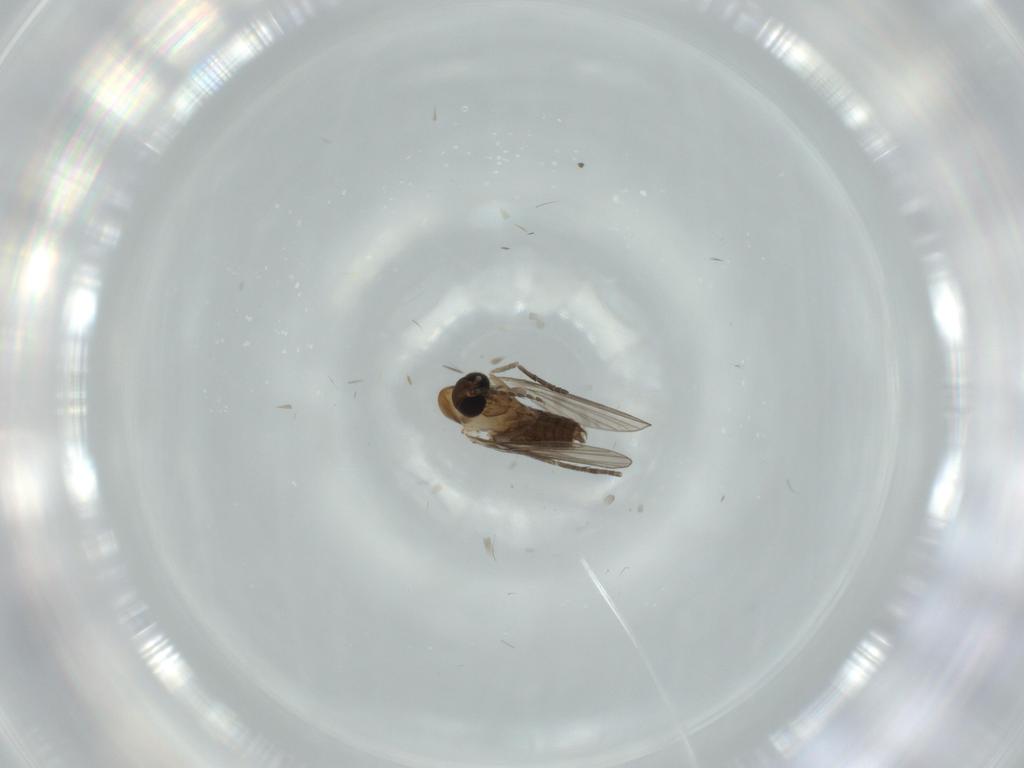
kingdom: Animalia
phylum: Arthropoda
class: Insecta
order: Diptera
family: Psychodidae
